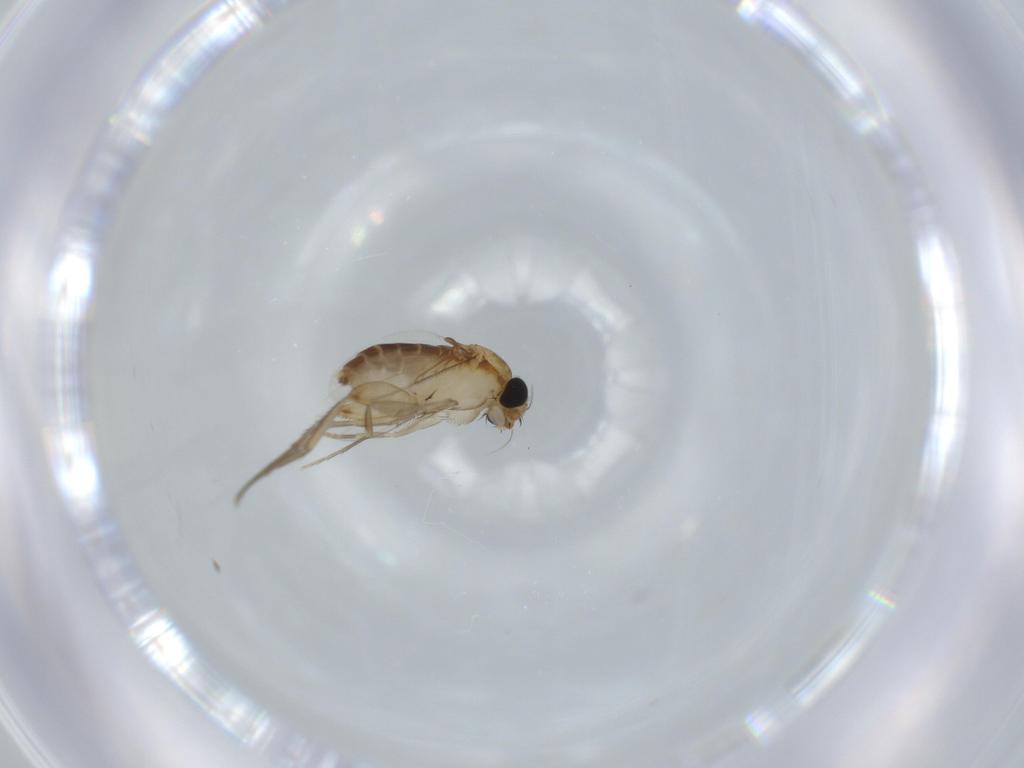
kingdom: Animalia
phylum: Arthropoda
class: Insecta
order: Diptera
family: Phoridae
